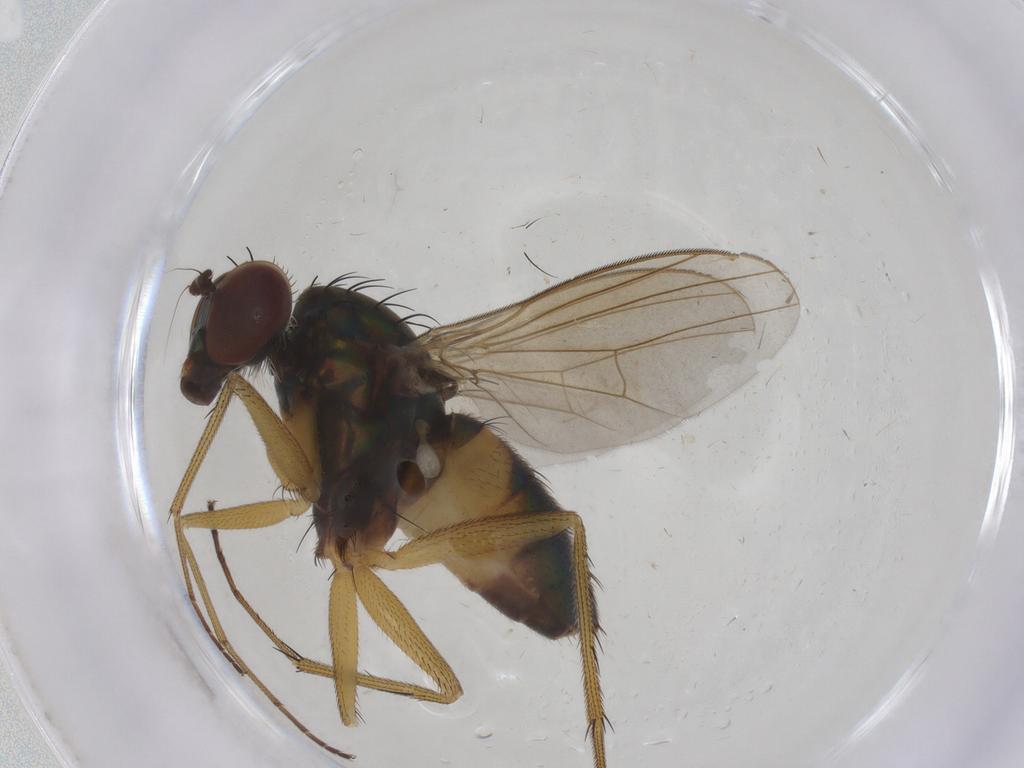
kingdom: Animalia
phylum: Arthropoda
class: Insecta
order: Diptera
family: Dolichopodidae
